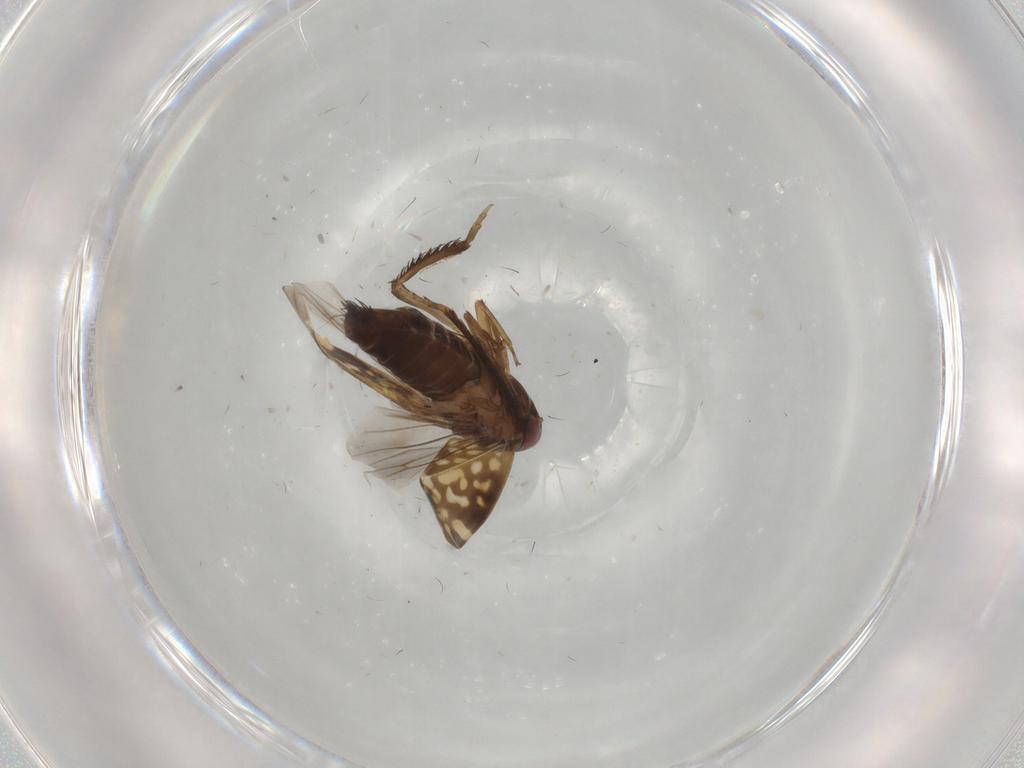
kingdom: Animalia
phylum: Arthropoda
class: Insecta
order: Hemiptera
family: Cicadellidae
